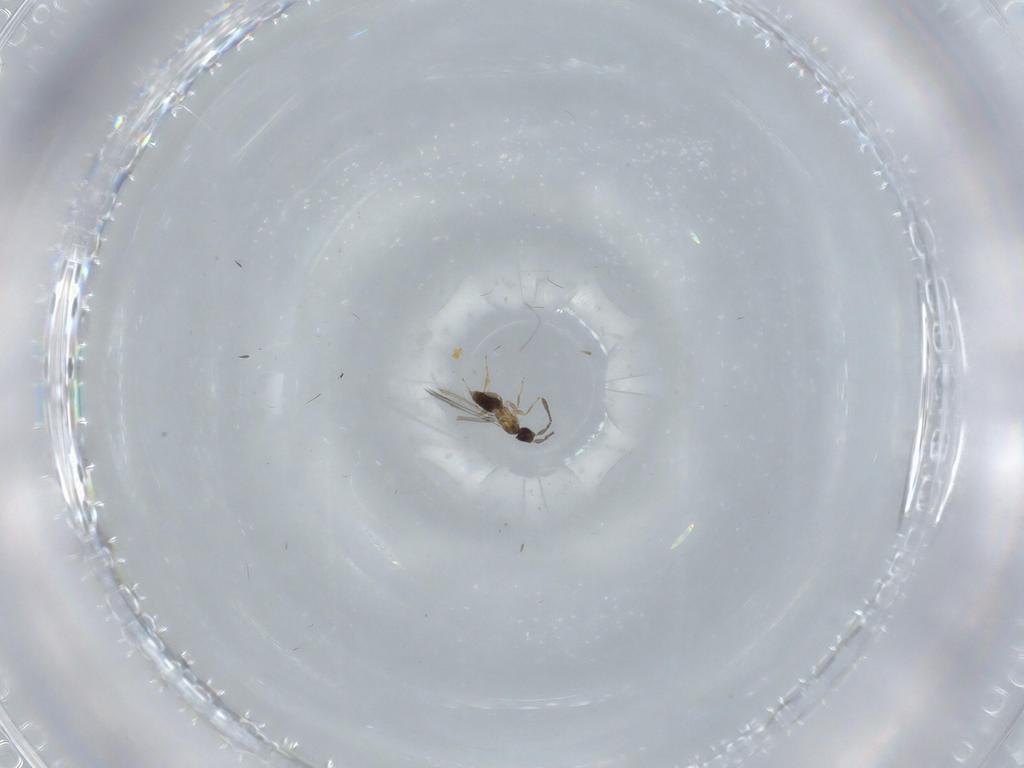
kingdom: Animalia
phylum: Arthropoda
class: Insecta
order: Hymenoptera
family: Mymaridae
